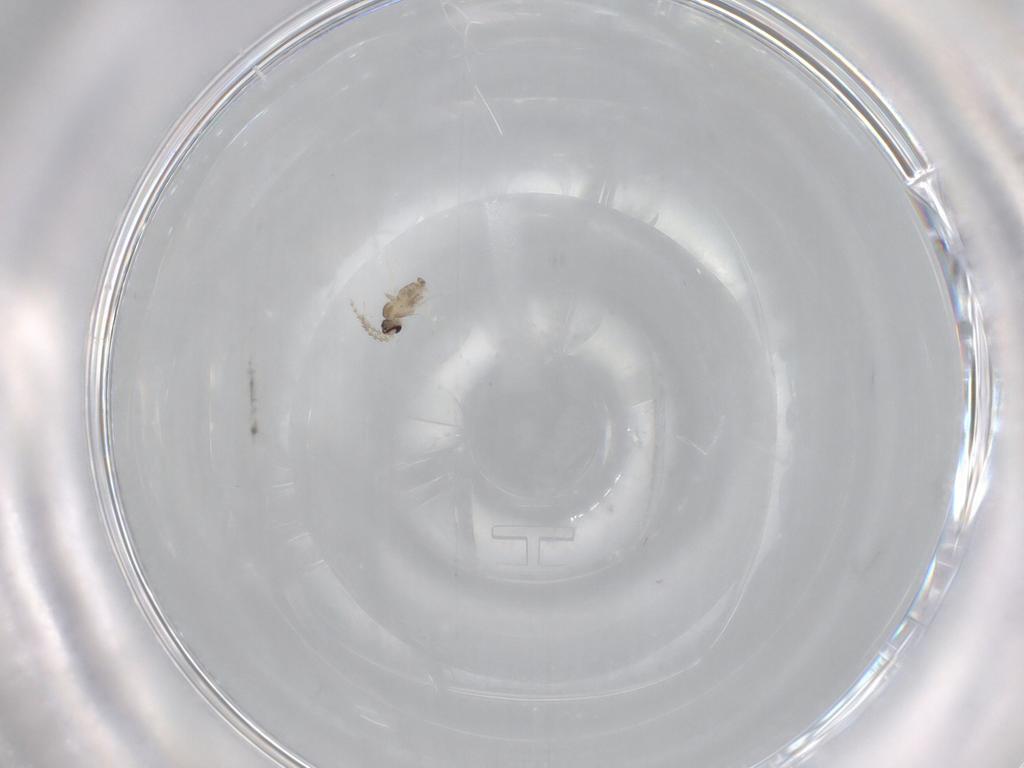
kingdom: Animalia
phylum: Arthropoda
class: Insecta
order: Diptera
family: Cecidomyiidae
